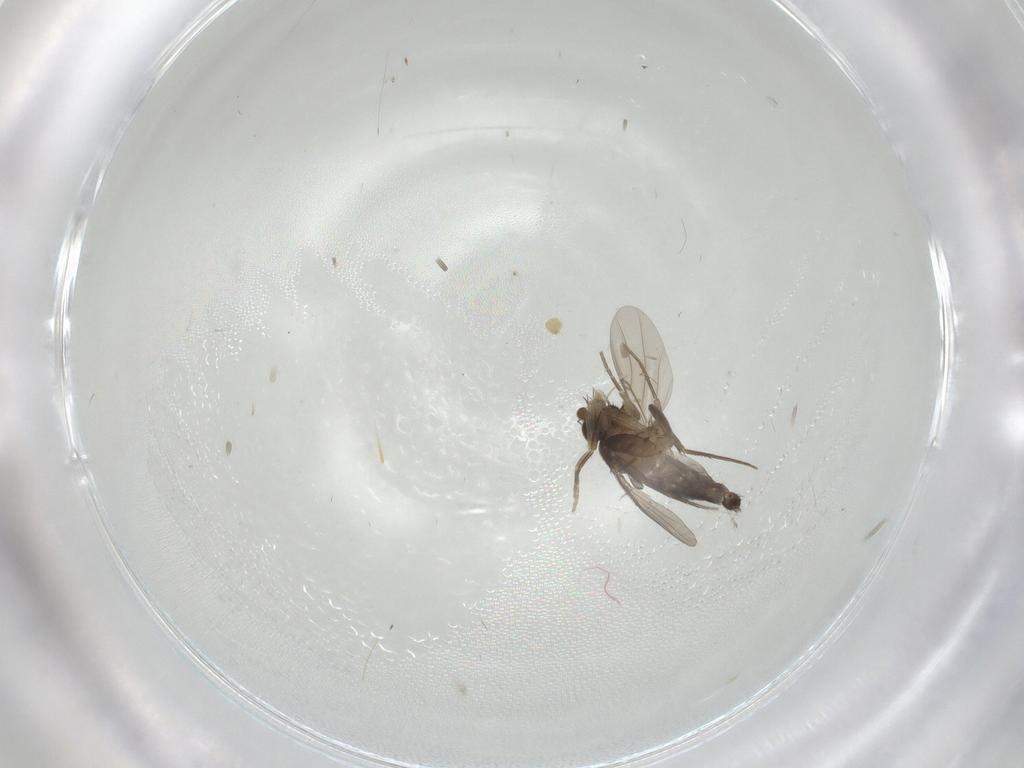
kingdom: Animalia
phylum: Arthropoda
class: Insecta
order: Diptera
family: Phoridae
